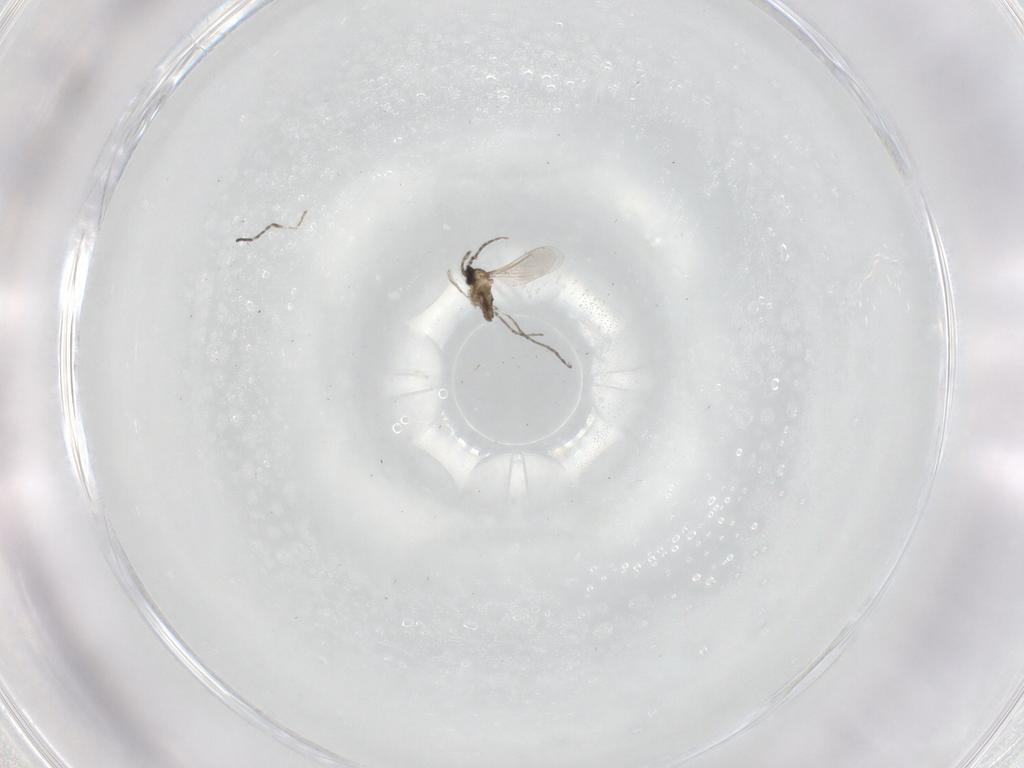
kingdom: Animalia
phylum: Arthropoda
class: Insecta
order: Diptera
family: Cecidomyiidae
